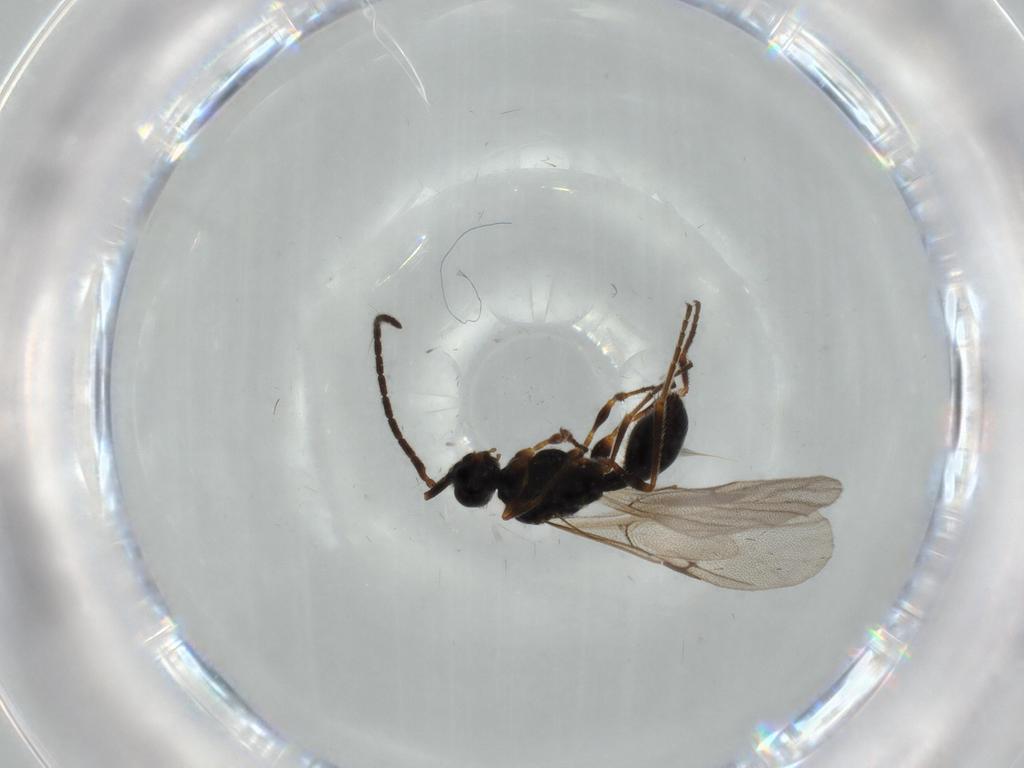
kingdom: Animalia
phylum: Arthropoda
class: Insecta
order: Hymenoptera
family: Ichneumonidae
